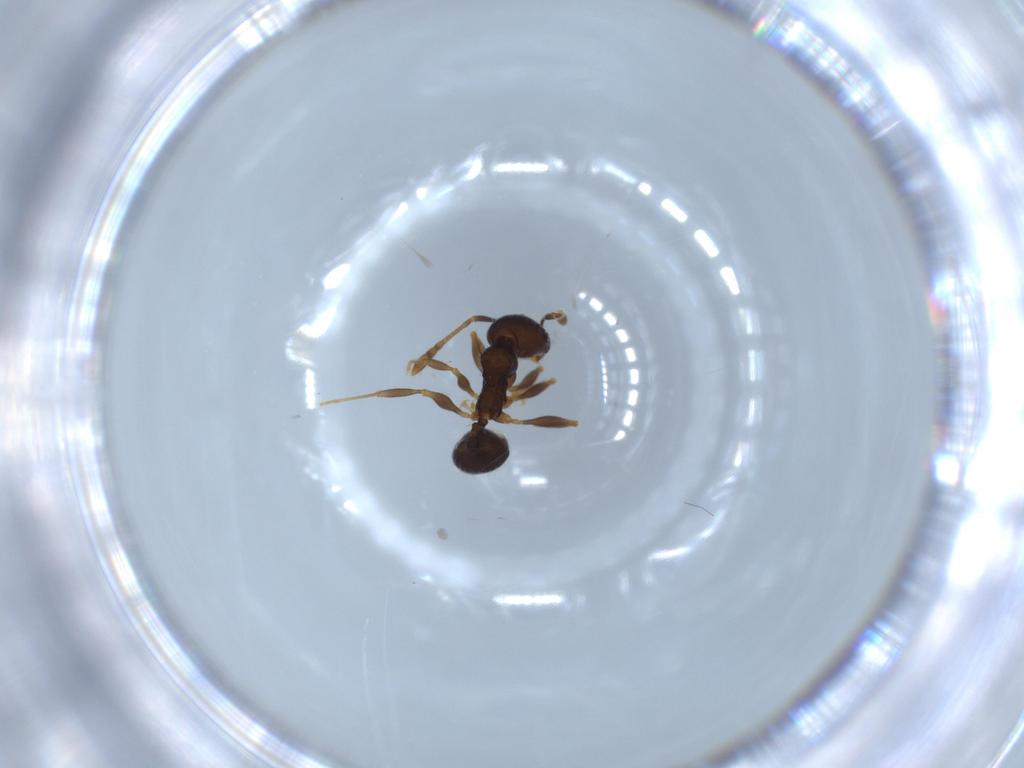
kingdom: Animalia
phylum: Arthropoda
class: Insecta
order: Hymenoptera
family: Formicidae
